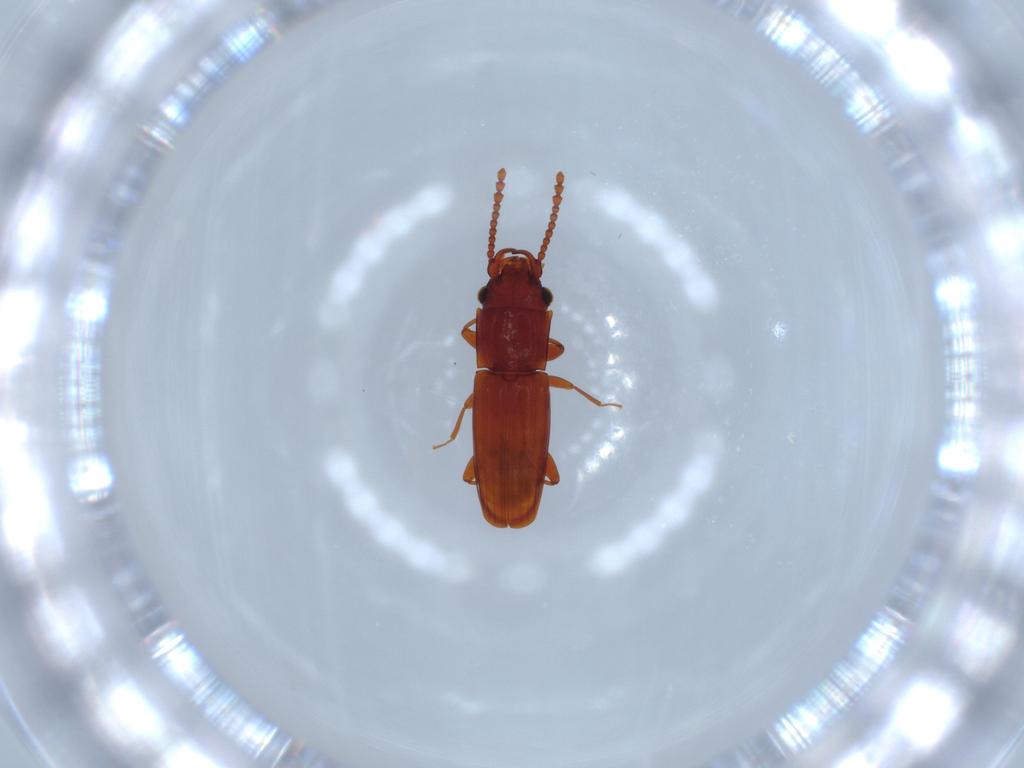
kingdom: Animalia
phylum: Arthropoda
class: Insecta
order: Coleoptera
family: Scraptiidae
